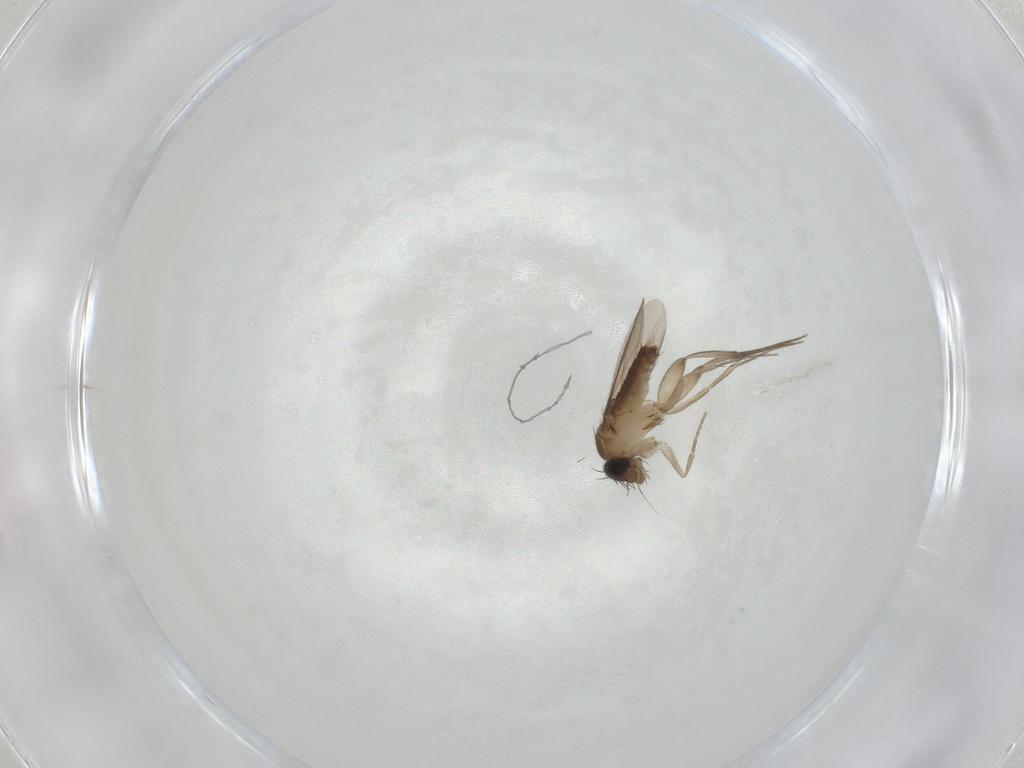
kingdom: Animalia
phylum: Arthropoda
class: Insecta
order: Diptera
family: Phoridae
